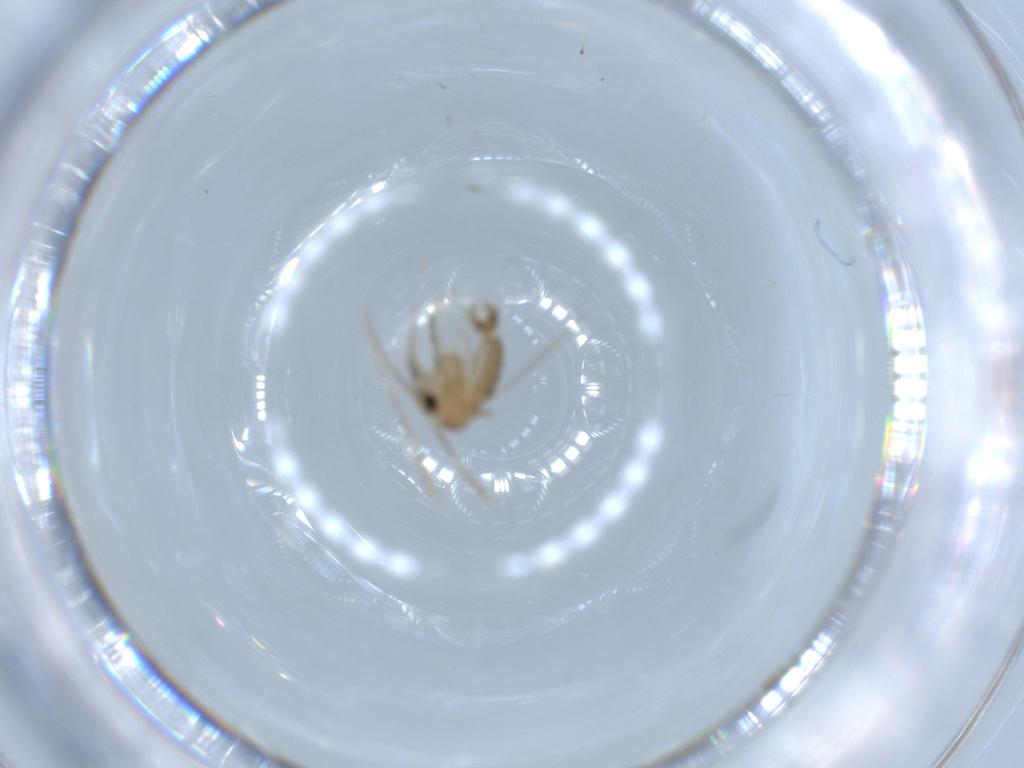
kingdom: Animalia
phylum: Arthropoda
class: Insecta
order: Diptera
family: Psychodidae
